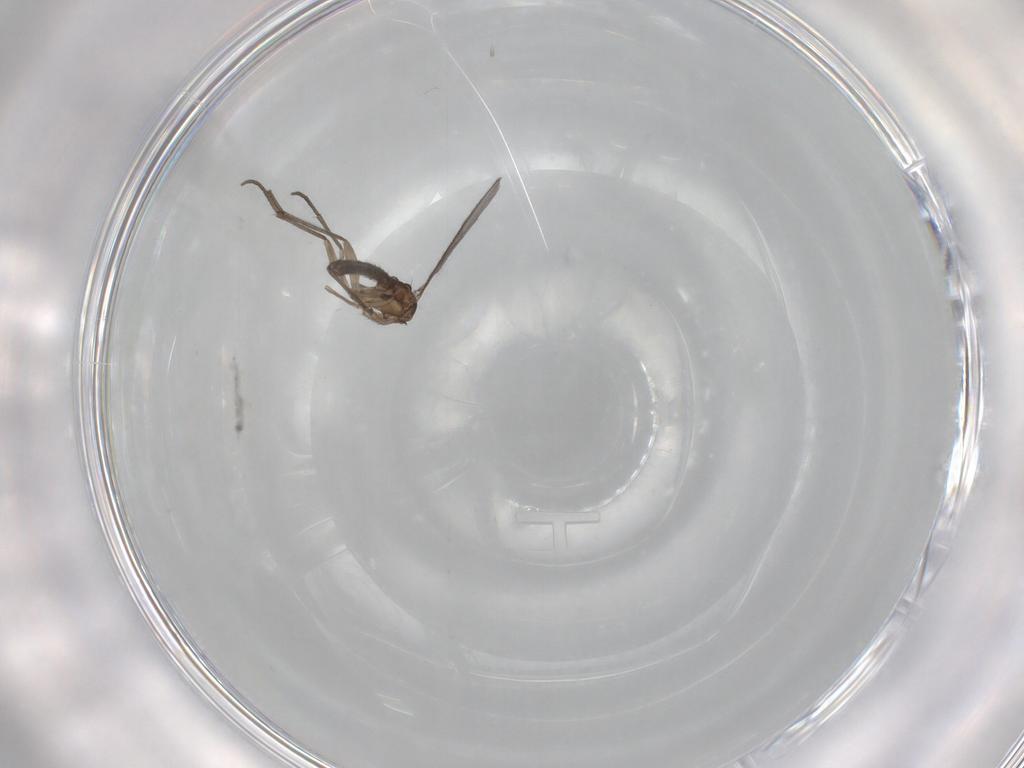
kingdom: Animalia
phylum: Arthropoda
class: Insecta
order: Diptera
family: Sciaridae
